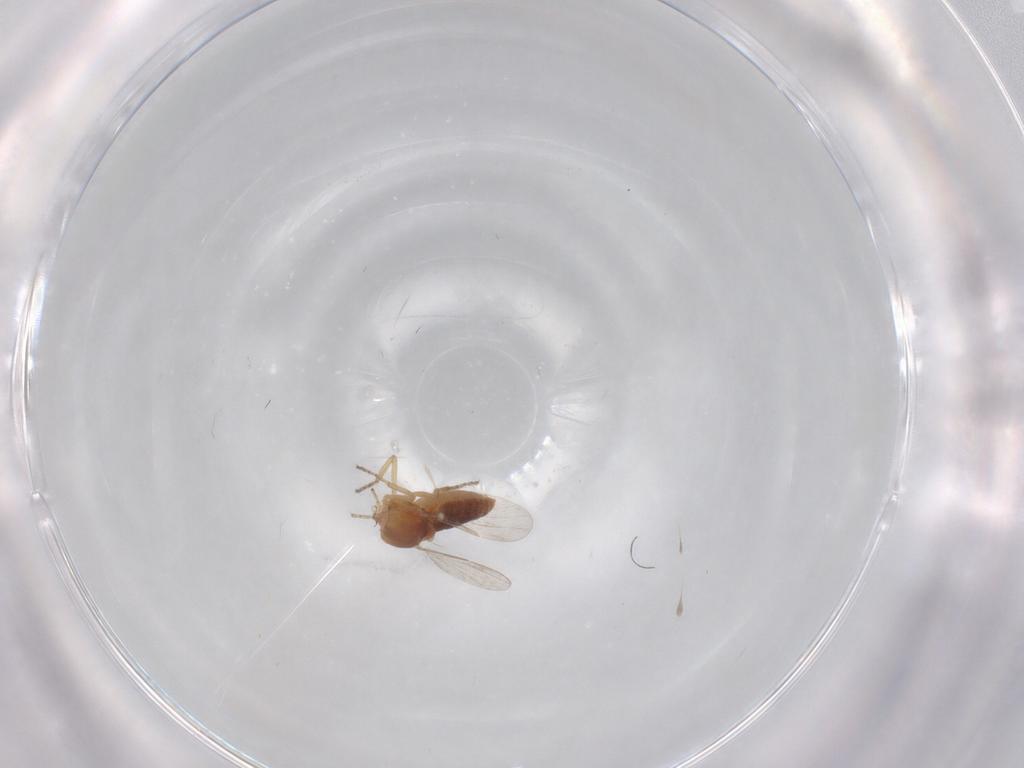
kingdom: Animalia
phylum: Arthropoda
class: Insecta
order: Diptera
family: Ceratopogonidae
